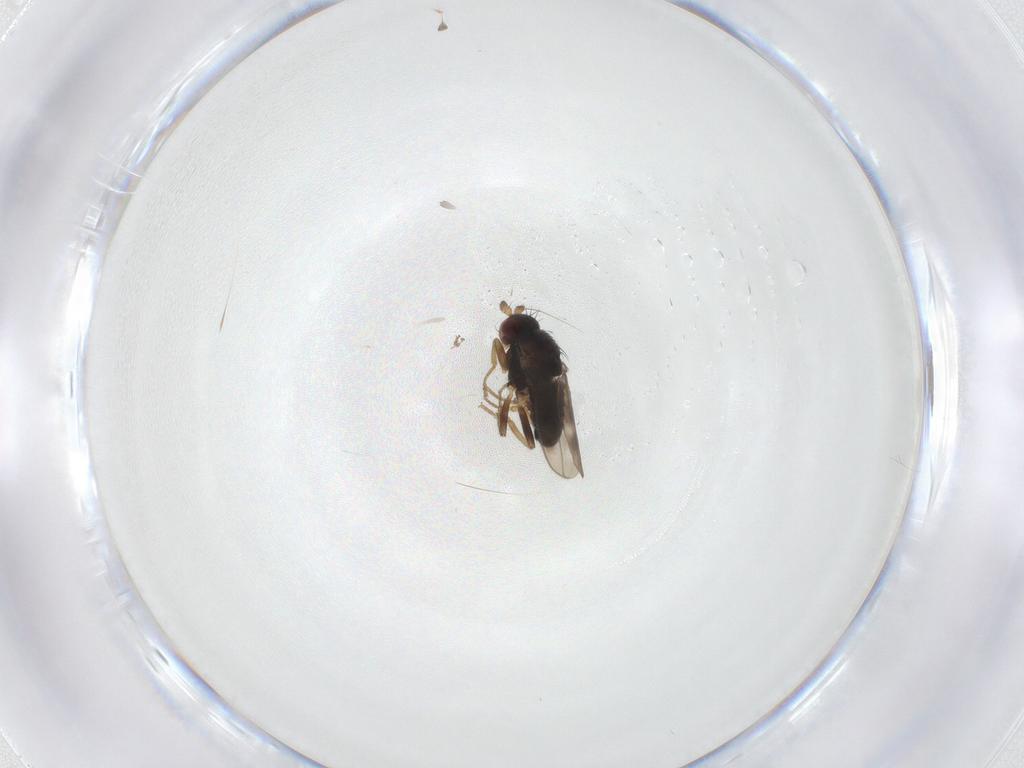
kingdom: Animalia
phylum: Arthropoda
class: Insecta
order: Diptera
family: Sphaeroceridae
